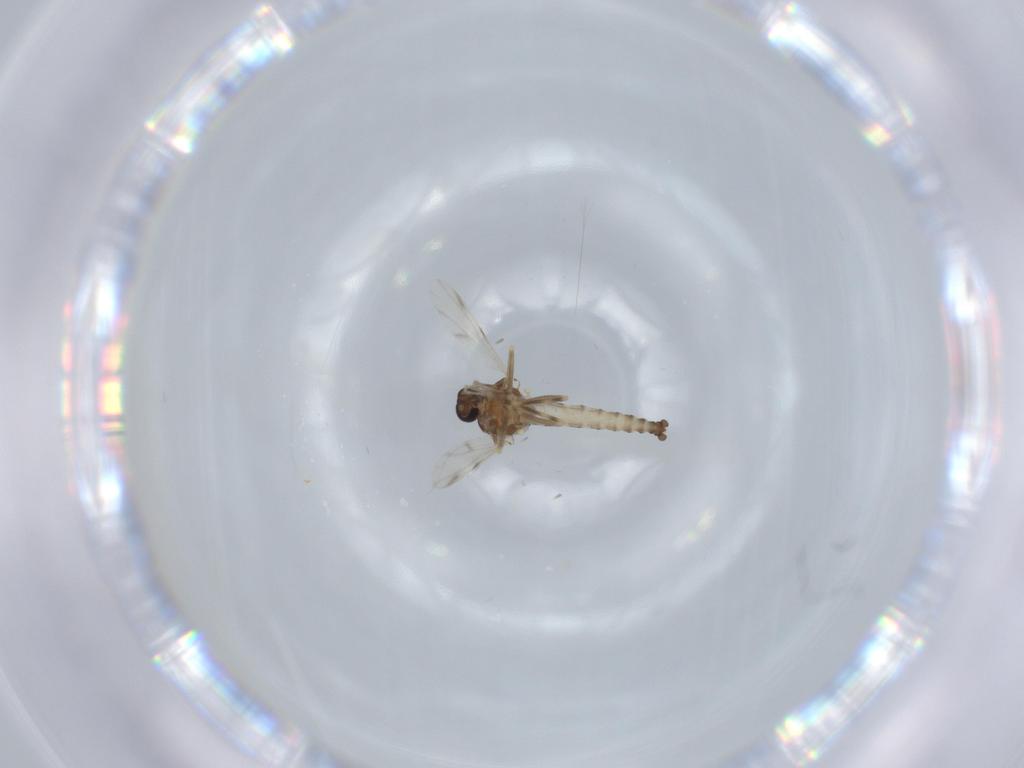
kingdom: Animalia
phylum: Arthropoda
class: Insecta
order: Diptera
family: Ceratopogonidae
